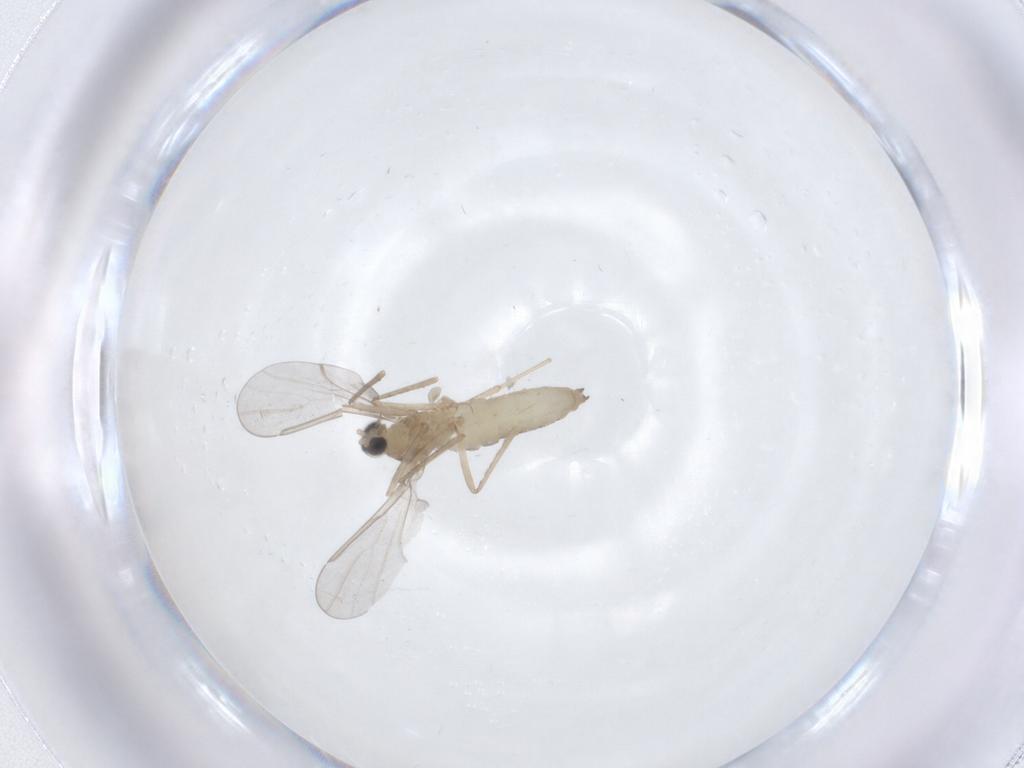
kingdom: Animalia
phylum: Arthropoda
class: Insecta
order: Diptera
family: Cecidomyiidae
